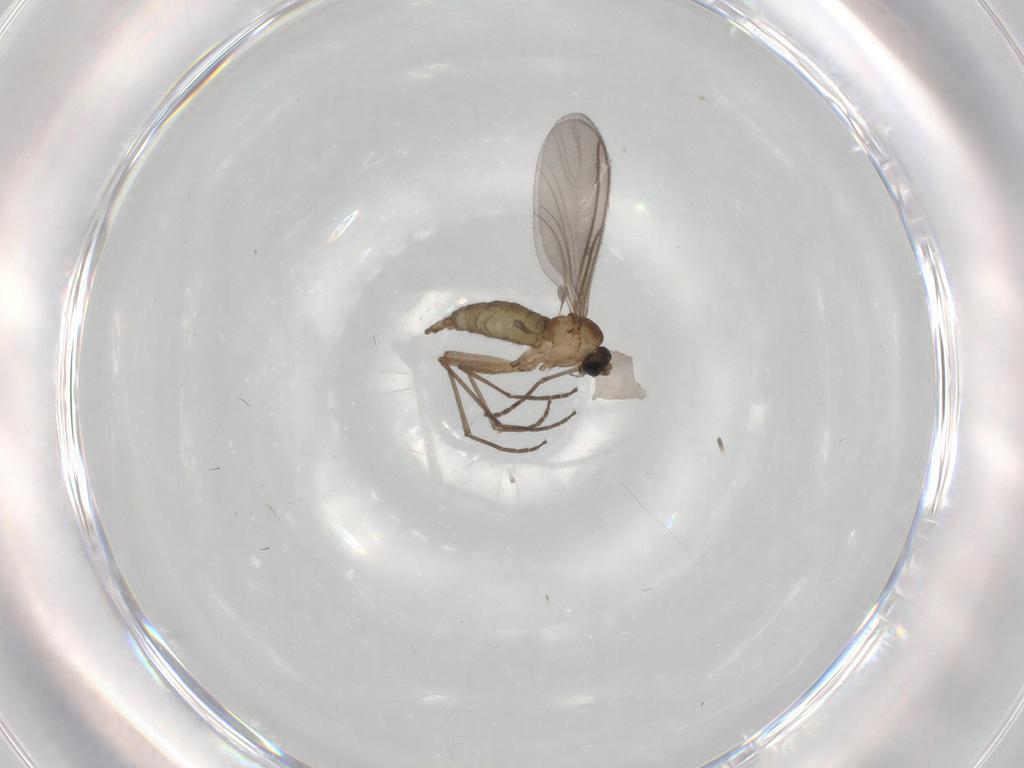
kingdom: Animalia
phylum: Arthropoda
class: Insecta
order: Diptera
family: Sciaridae
